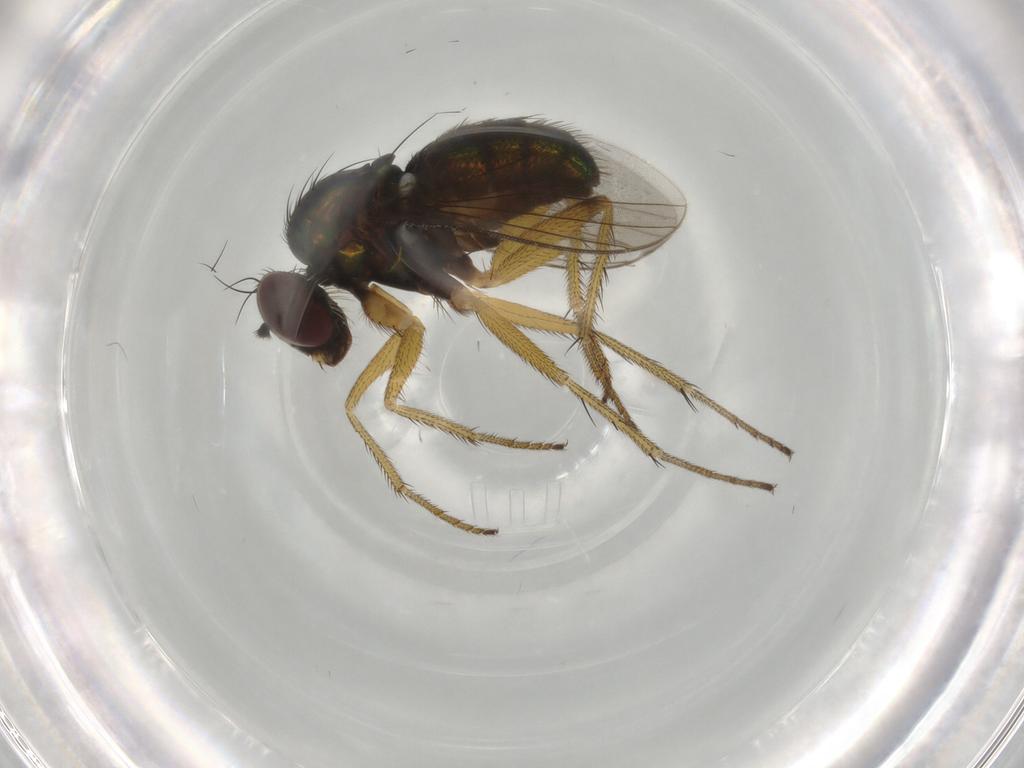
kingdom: Animalia
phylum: Arthropoda
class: Insecta
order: Diptera
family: Dolichopodidae
